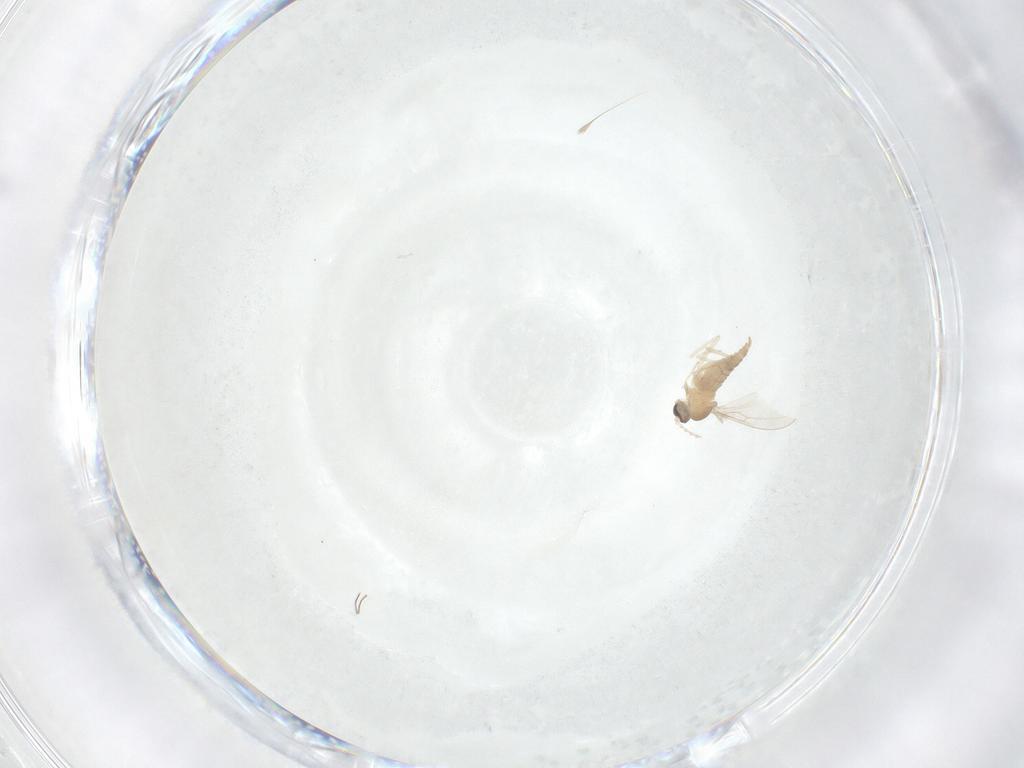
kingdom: Animalia
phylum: Arthropoda
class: Insecta
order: Diptera
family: Cecidomyiidae
